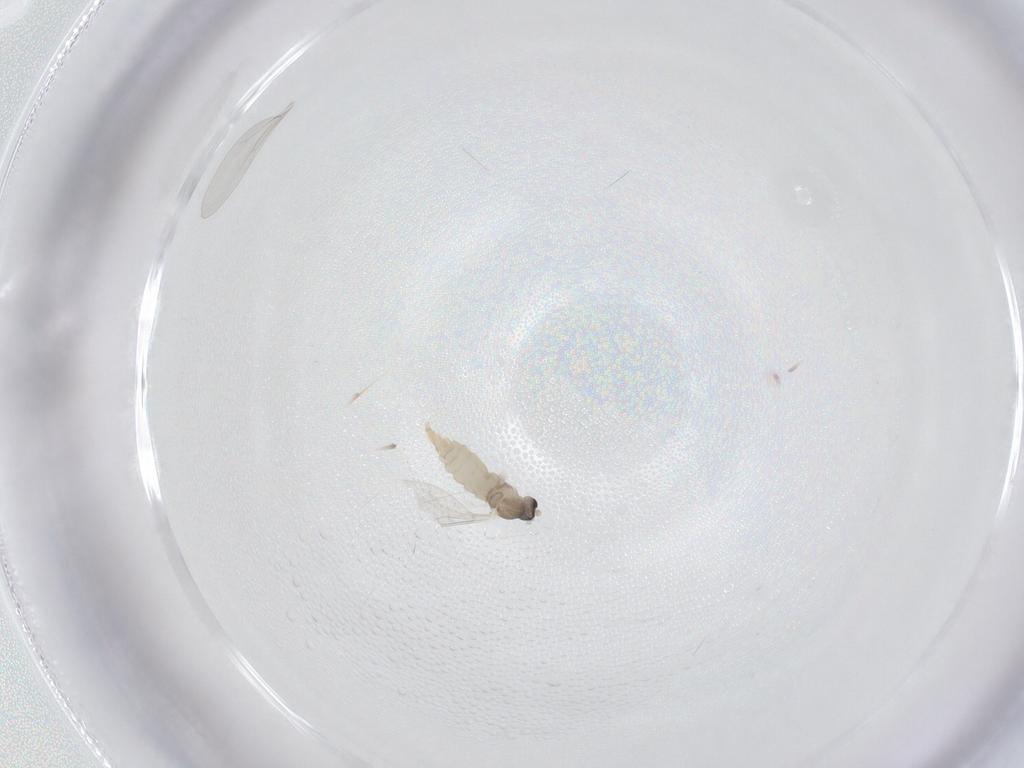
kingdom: Animalia
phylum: Arthropoda
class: Insecta
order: Diptera
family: Cecidomyiidae
